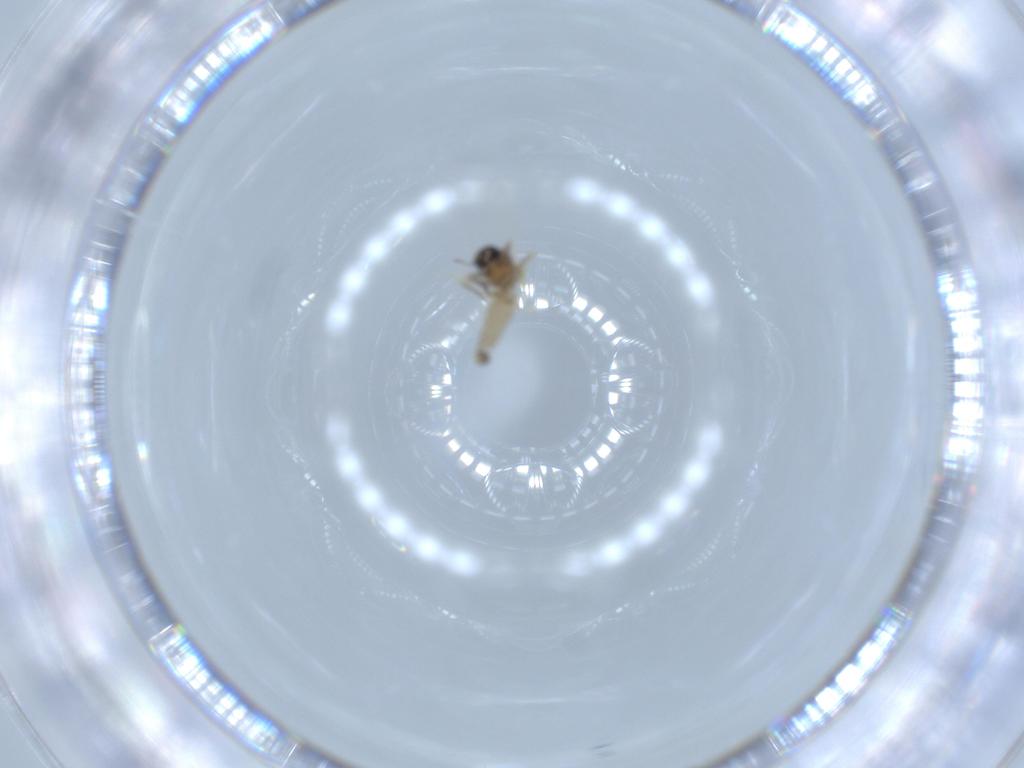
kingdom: Animalia
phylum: Arthropoda
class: Insecta
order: Diptera
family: Ceratopogonidae
